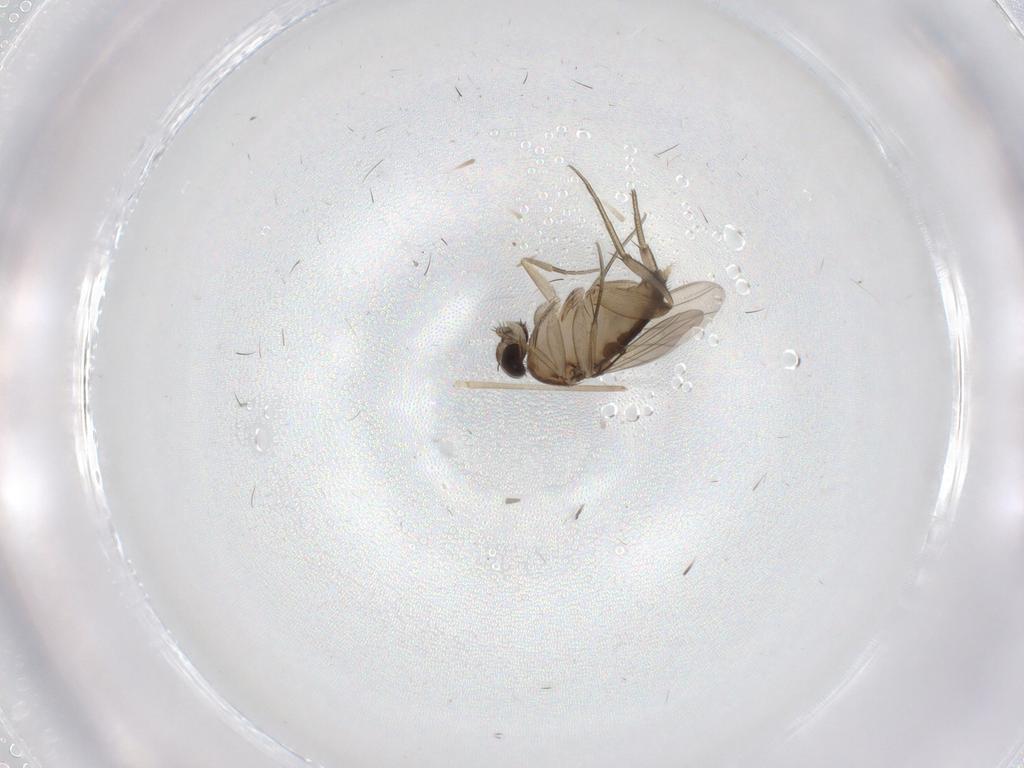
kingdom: Animalia
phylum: Arthropoda
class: Insecta
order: Diptera
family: Phoridae
